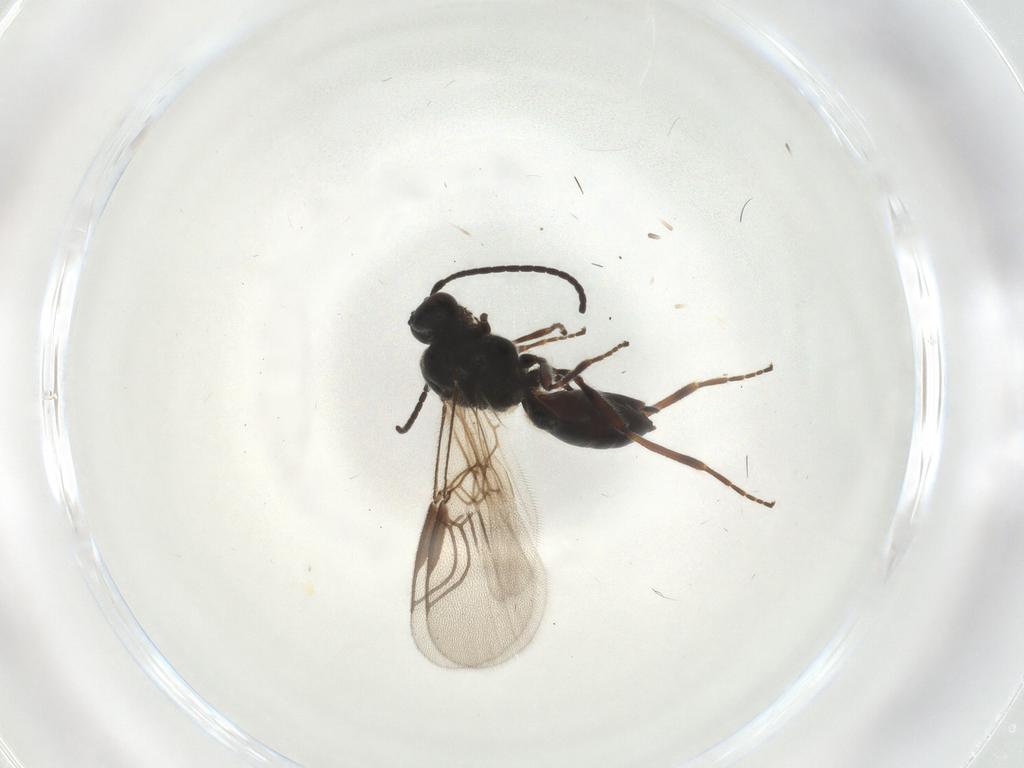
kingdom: Animalia
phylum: Arthropoda
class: Insecta
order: Hymenoptera
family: Braconidae
